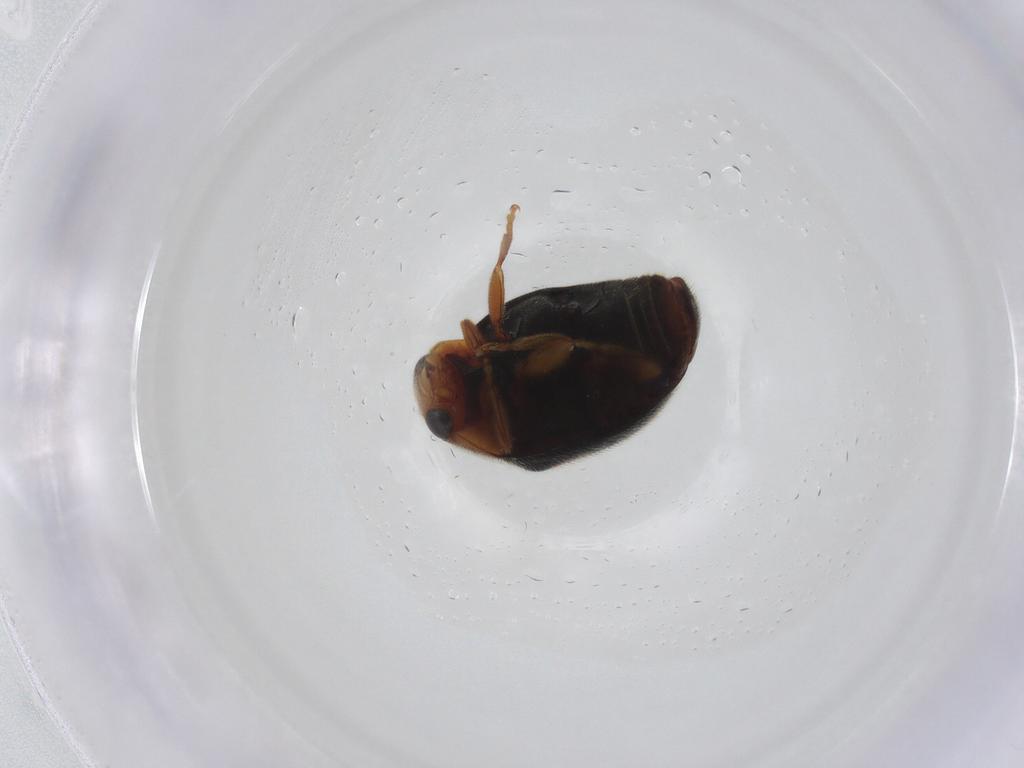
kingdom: Animalia
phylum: Arthropoda
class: Insecta
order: Coleoptera
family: Coccinellidae
